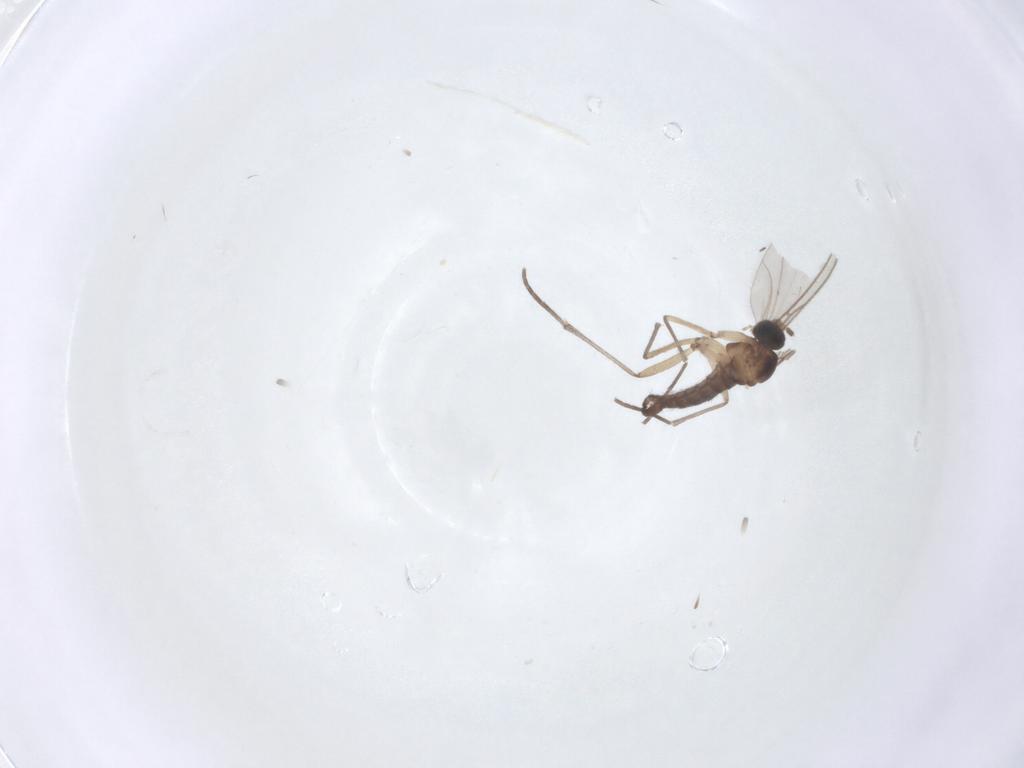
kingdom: Animalia
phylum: Arthropoda
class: Insecta
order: Diptera
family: Sciaridae
